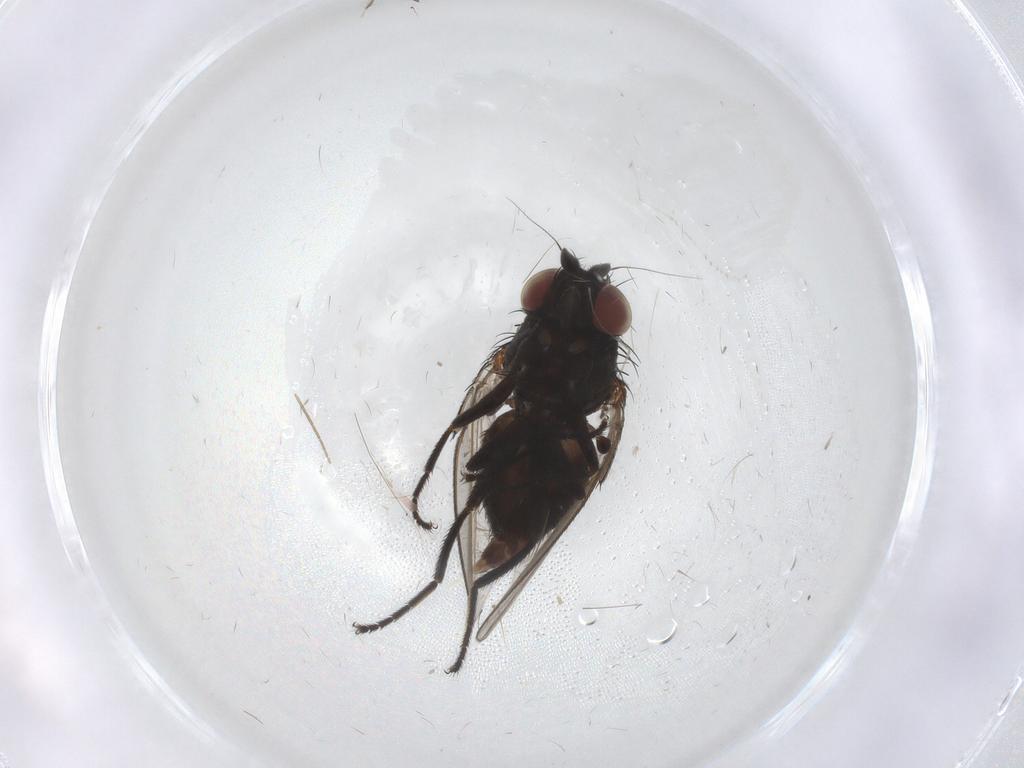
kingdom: Animalia
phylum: Arthropoda
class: Insecta
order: Diptera
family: Milichiidae
